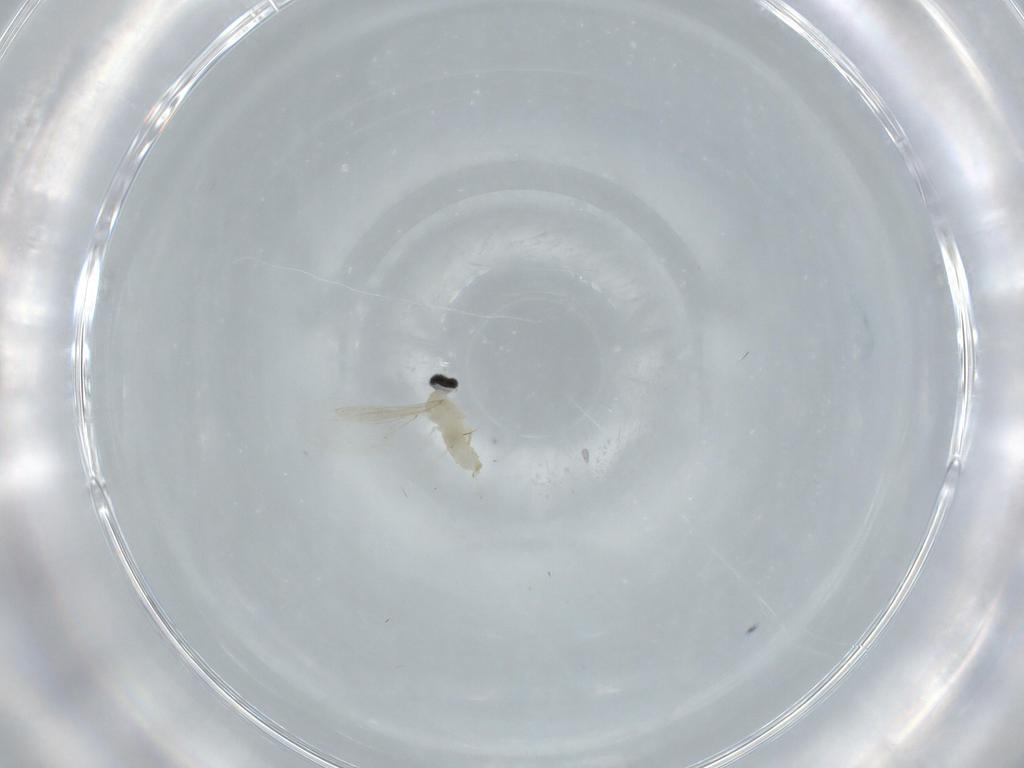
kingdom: Animalia
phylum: Arthropoda
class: Insecta
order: Diptera
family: Cecidomyiidae
